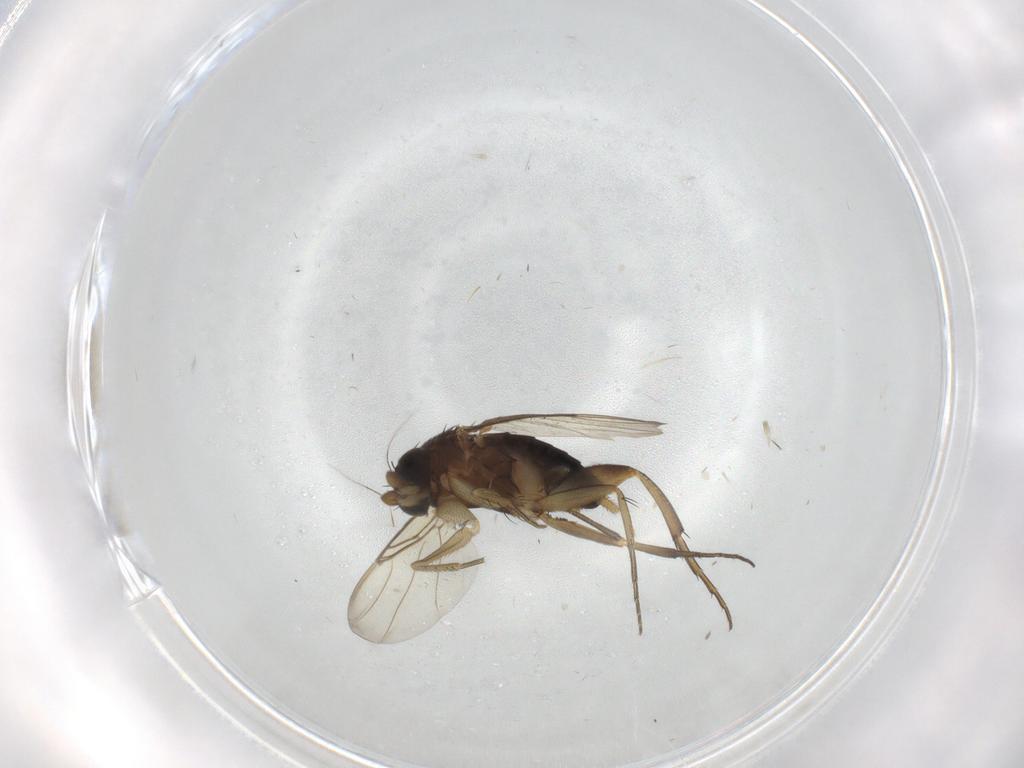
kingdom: Animalia
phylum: Arthropoda
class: Insecta
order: Diptera
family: Phoridae
